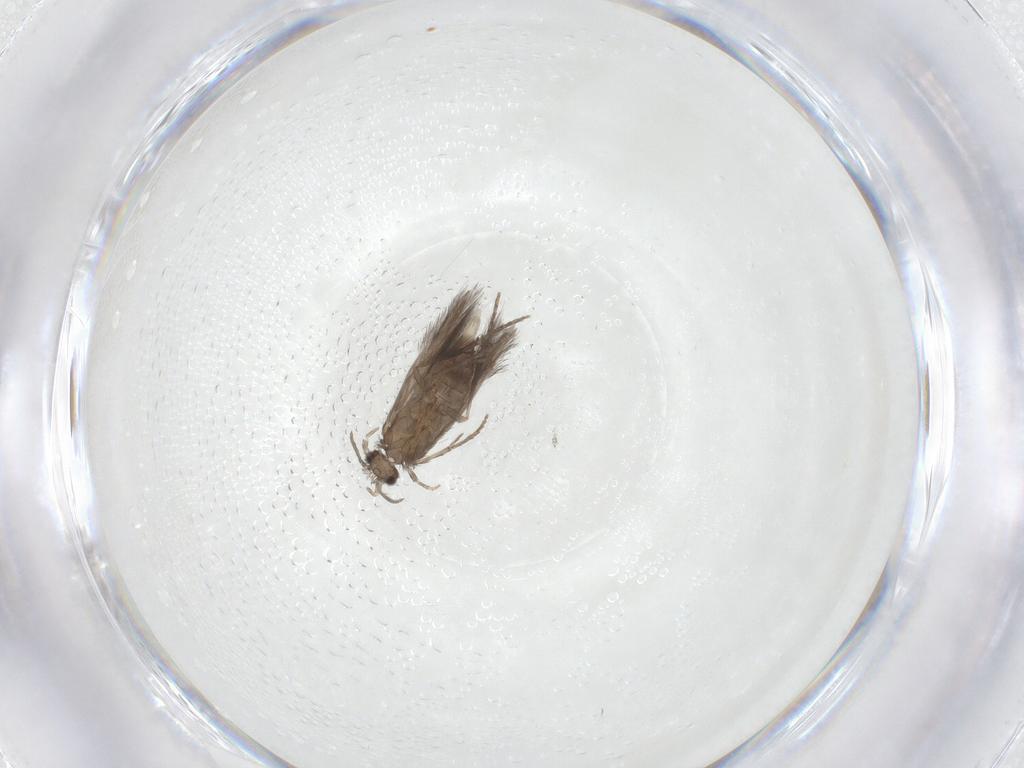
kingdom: Animalia
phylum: Arthropoda
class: Insecta
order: Trichoptera
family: Hydroptilidae
